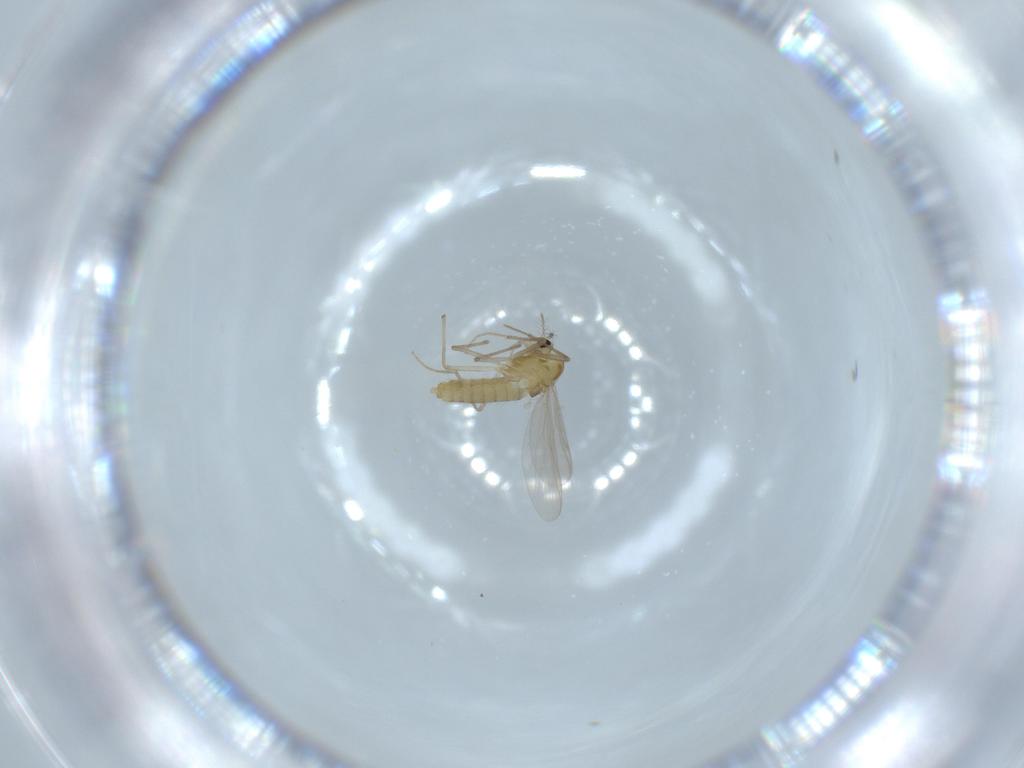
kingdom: Animalia
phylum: Arthropoda
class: Insecta
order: Diptera
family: Chironomidae
